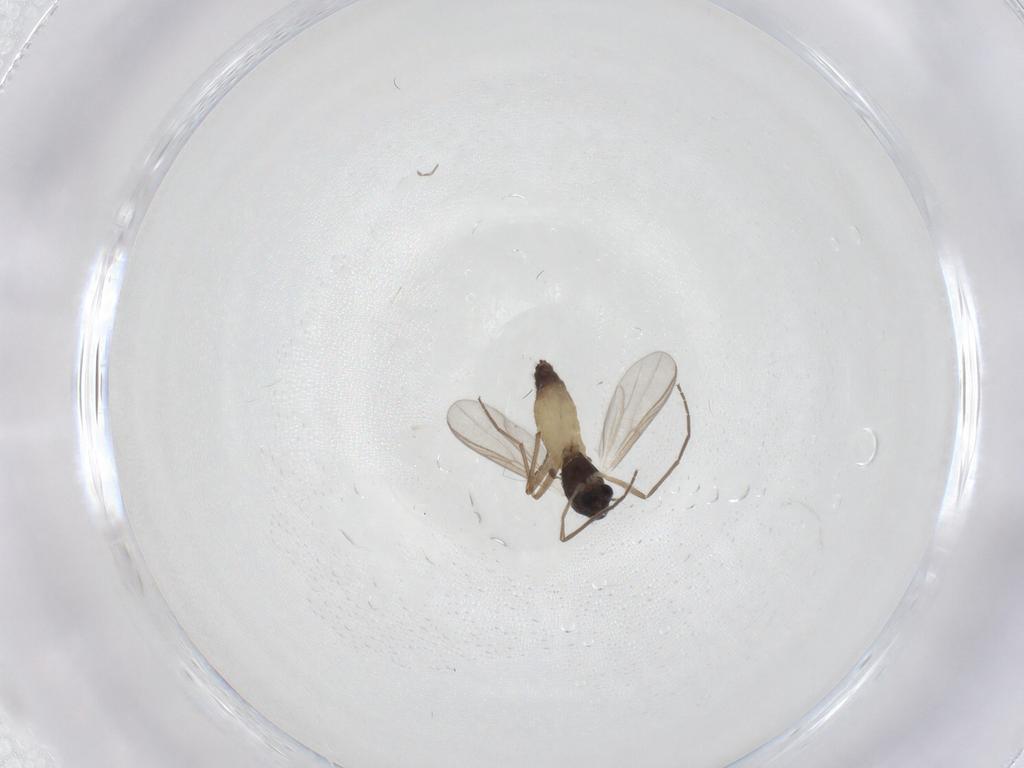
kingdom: Animalia
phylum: Arthropoda
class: Insecta
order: Diptera
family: Chironomidae
